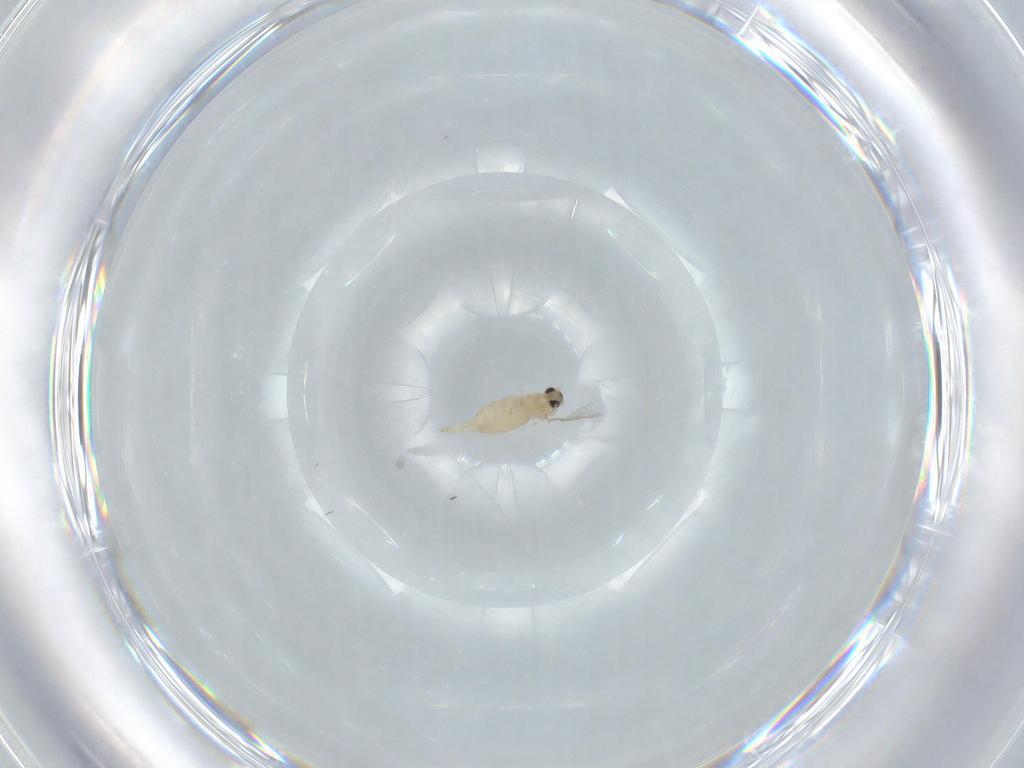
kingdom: Animalia
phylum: Arthropoda
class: Insecta
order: Diptera
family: Cecidomyiidae
